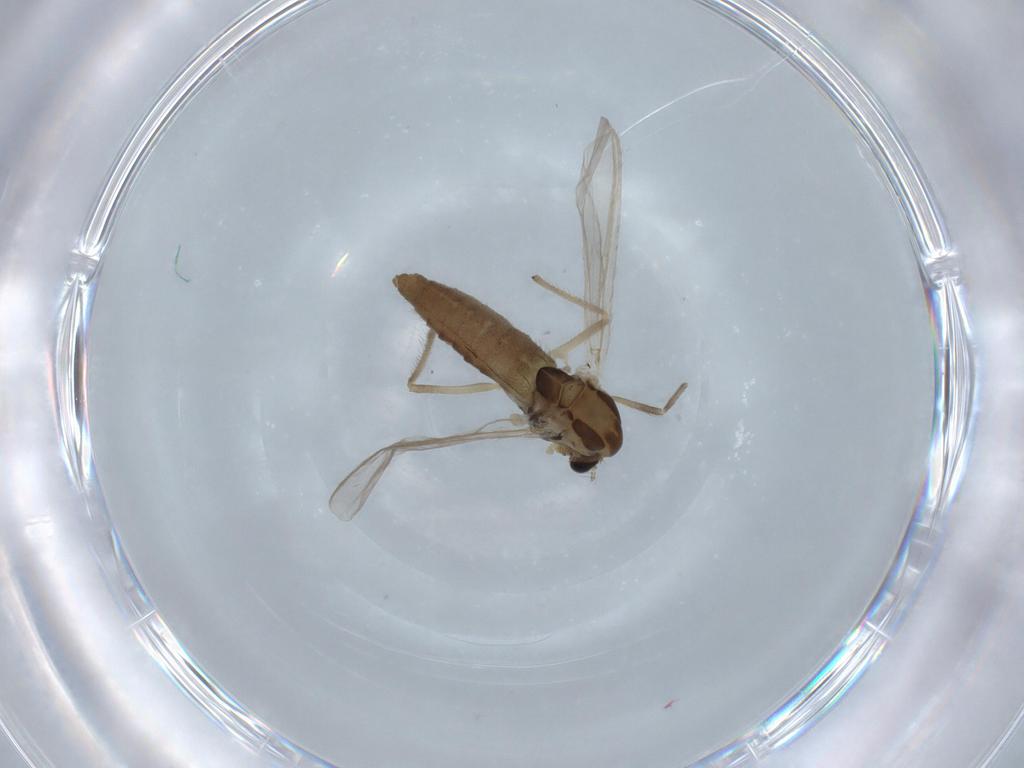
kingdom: Animalia
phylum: Arthropoda
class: Insecta
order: Diptera
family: Chironomidae
